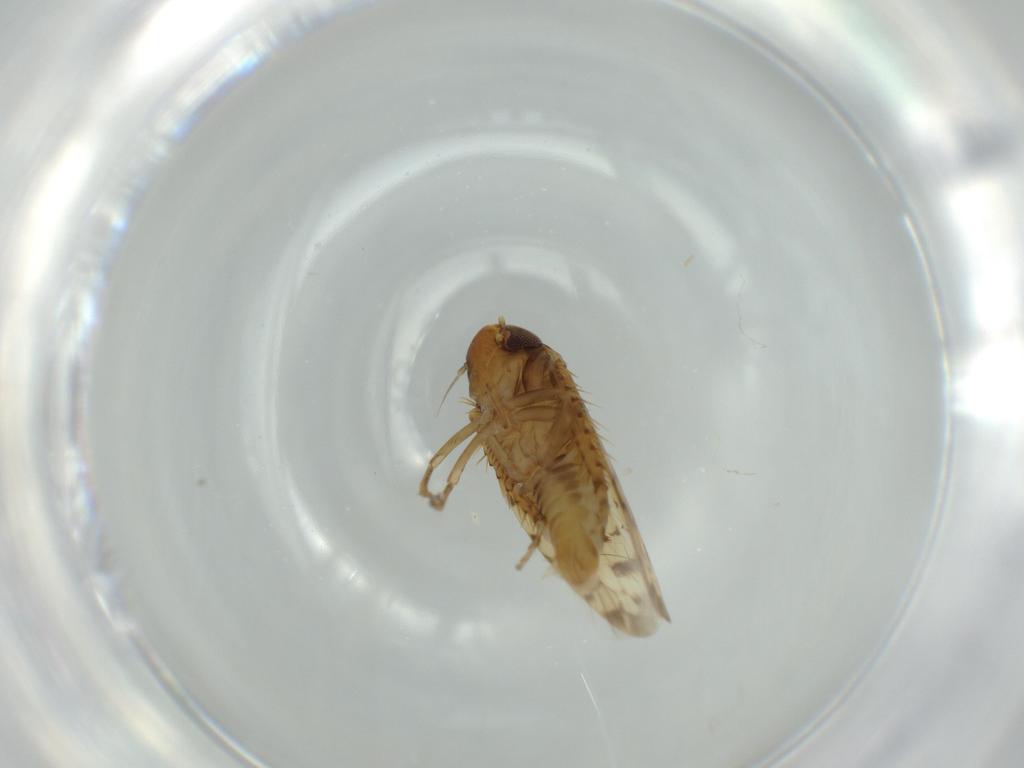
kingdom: Animalia
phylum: Arthropoda
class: Insecta
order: Hemiptera
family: Cicadellidae
